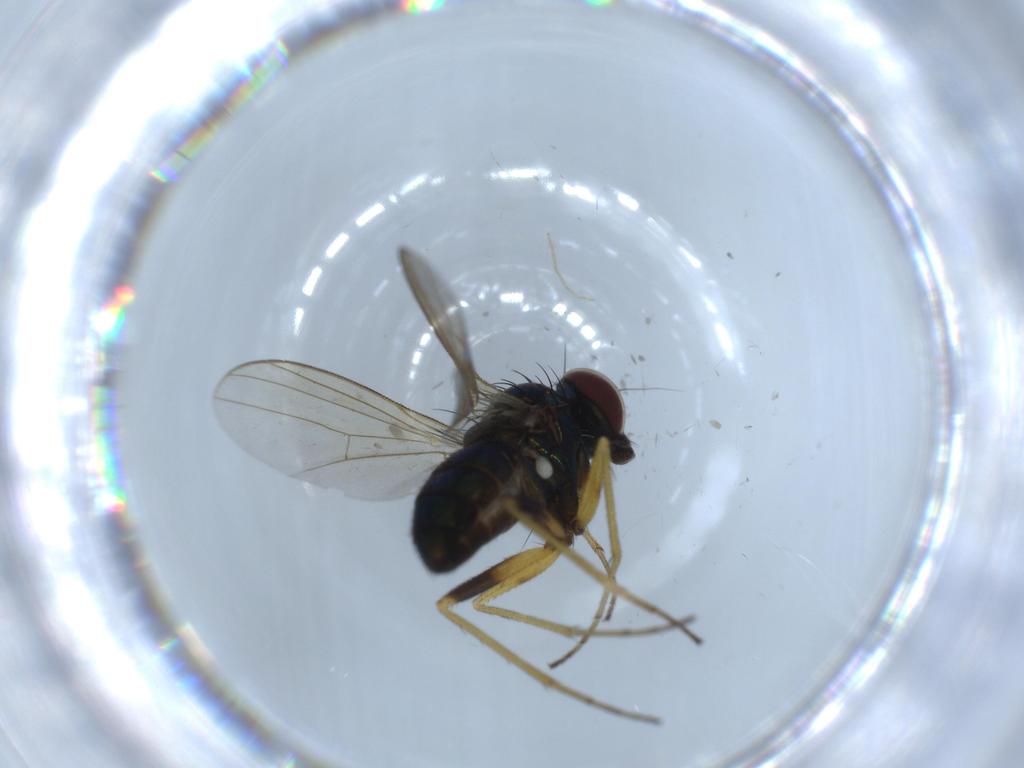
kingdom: Animalia
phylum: Arthropoda
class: Insecta
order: Diptera
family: Dolichopodidae
